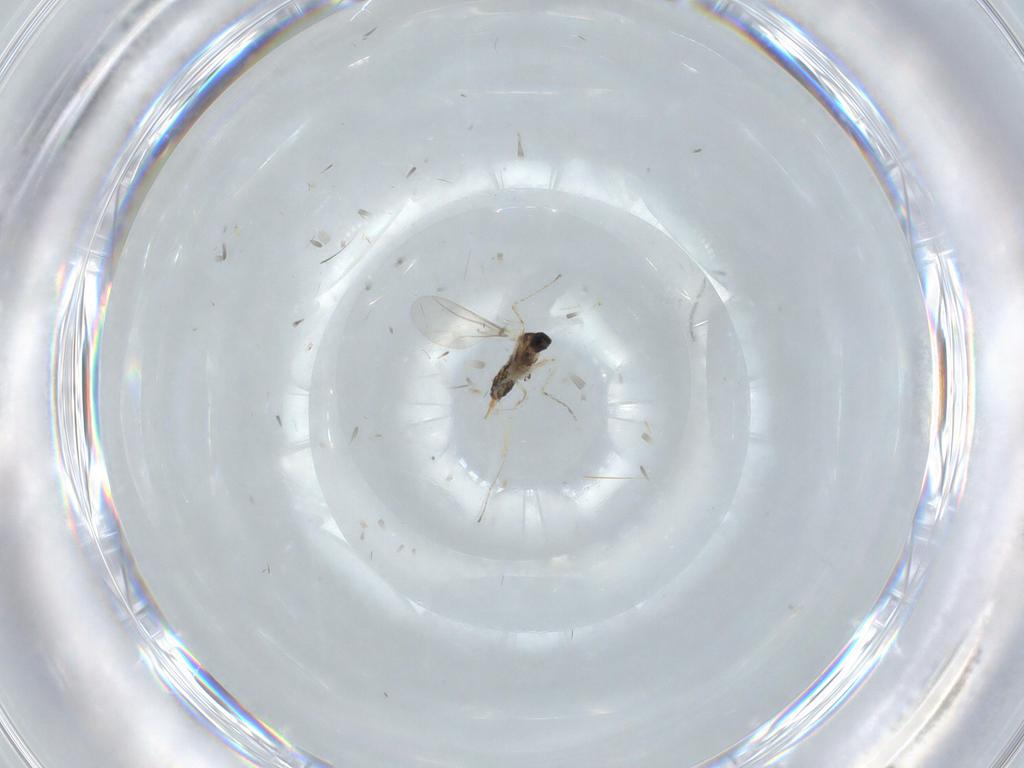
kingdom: Animalia
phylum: Arthropoda
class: Insecta
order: Diptera
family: Cecidomyiidae
